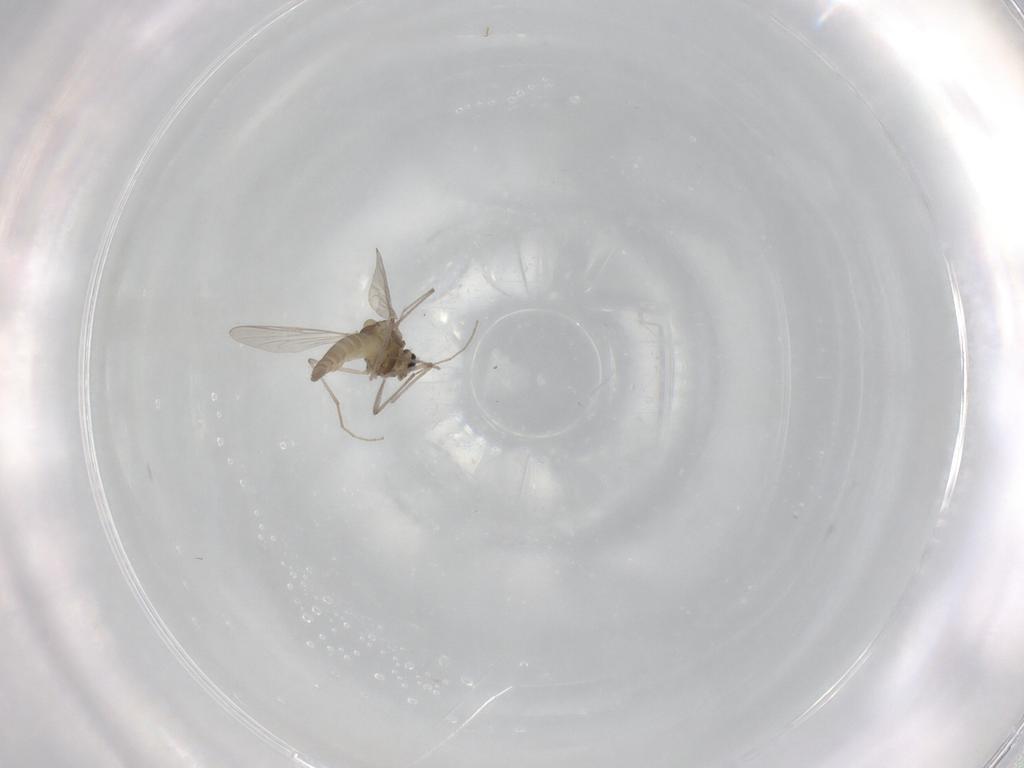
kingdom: Animalia
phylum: Arthropoda
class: Insecta
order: Diptera
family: Chironomidae
